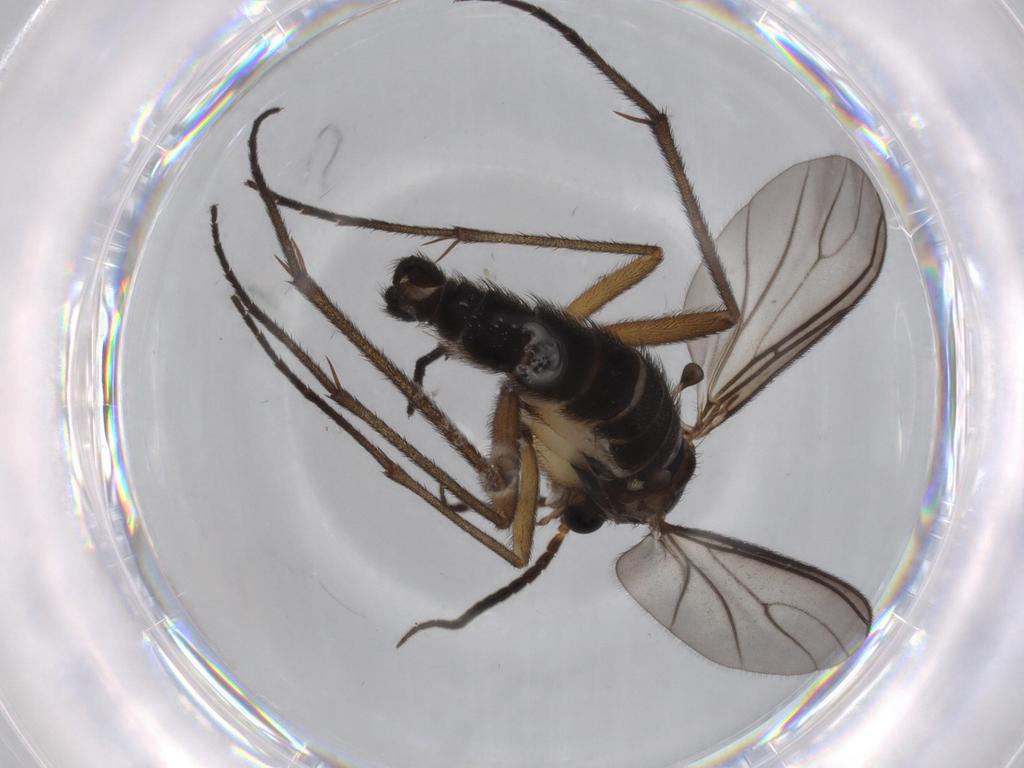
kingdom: Animalia
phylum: Arthropoda
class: Insecta
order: Diptera
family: Sciaridae
